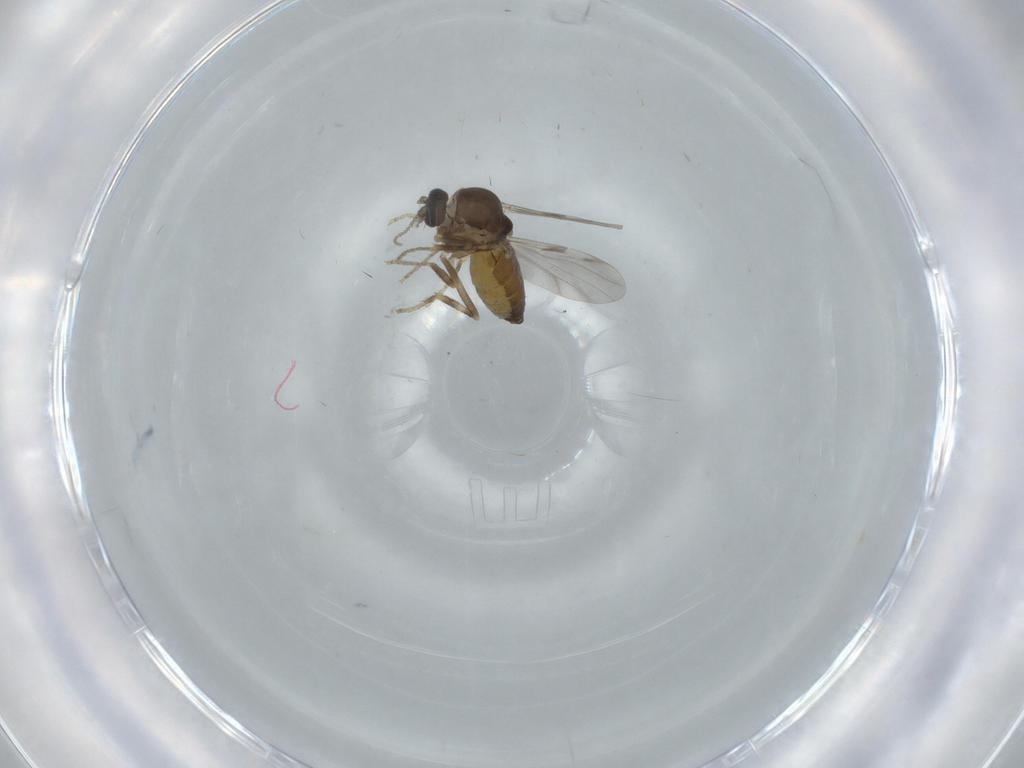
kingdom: Animalia
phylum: Arthropoda
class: Insecta
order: Diptera
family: Ceratopogonidae
